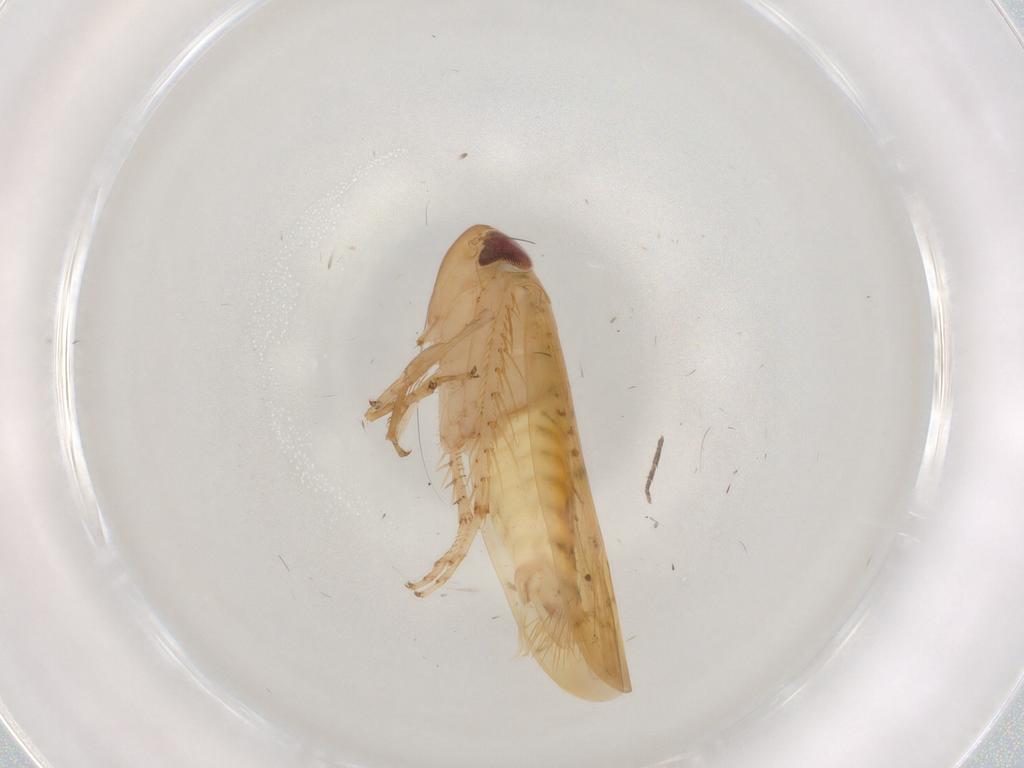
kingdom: Animalia
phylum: Arthropoda
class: Insecta
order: Hemiptera
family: Cicadellidae
